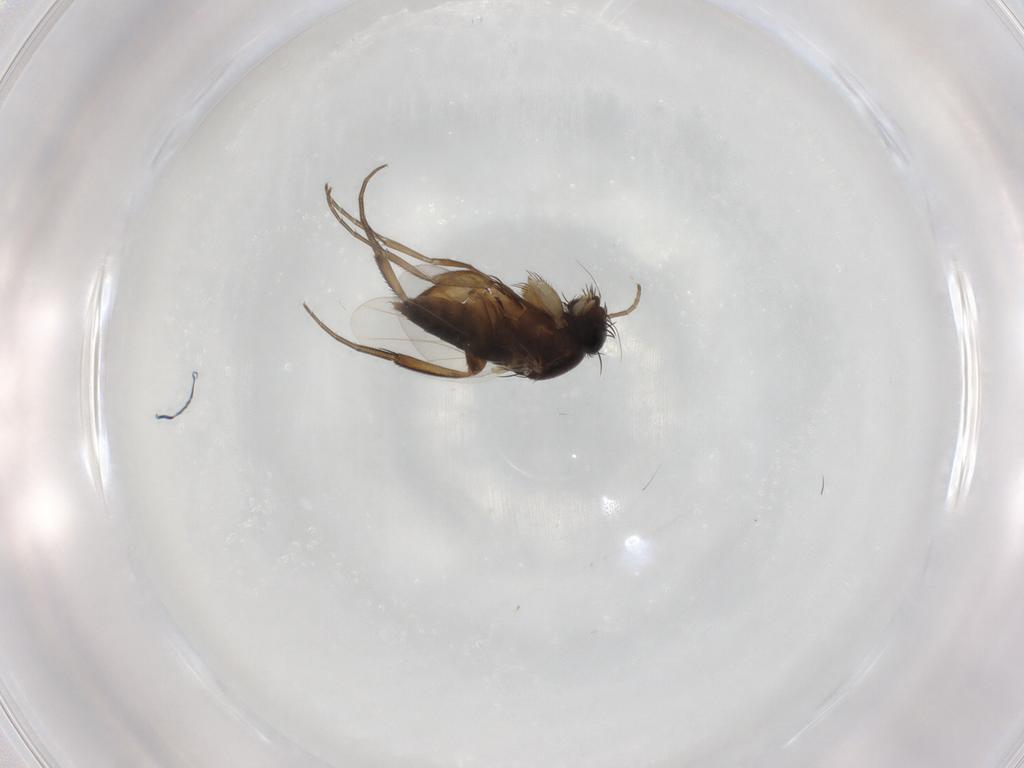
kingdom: Animalia
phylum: Arthropoda
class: Insecta
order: Diptera
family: Phoridae
